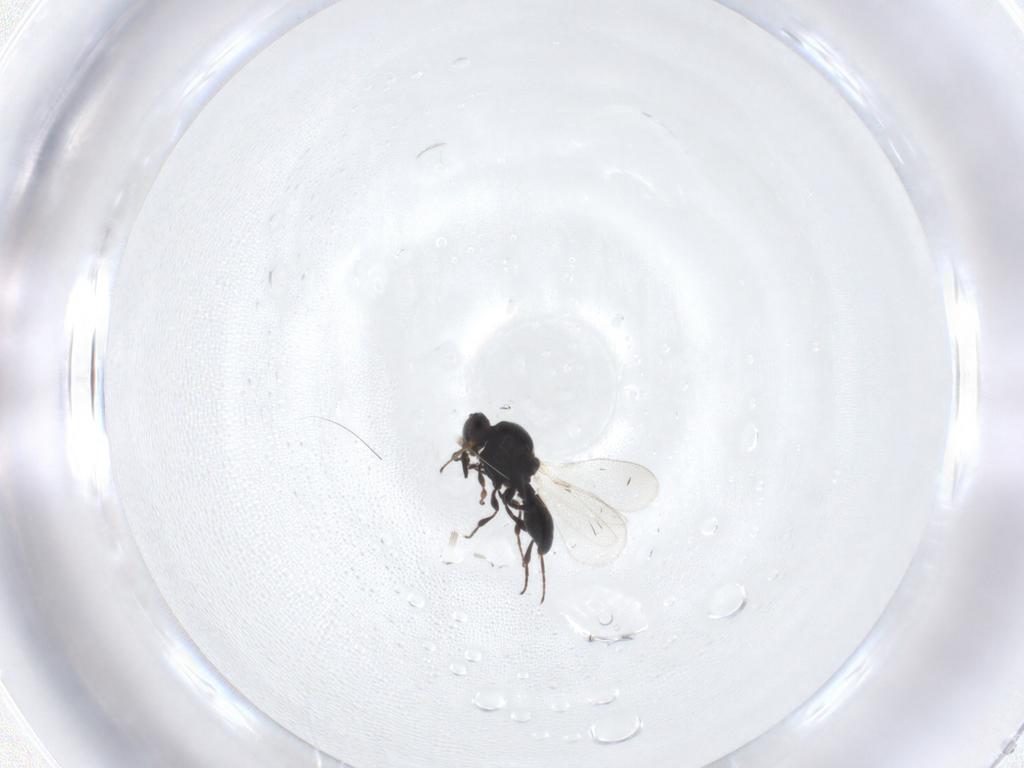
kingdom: Animalia
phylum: Arthropoda
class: Insecta
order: Hymenoptera
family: Platygastridae
